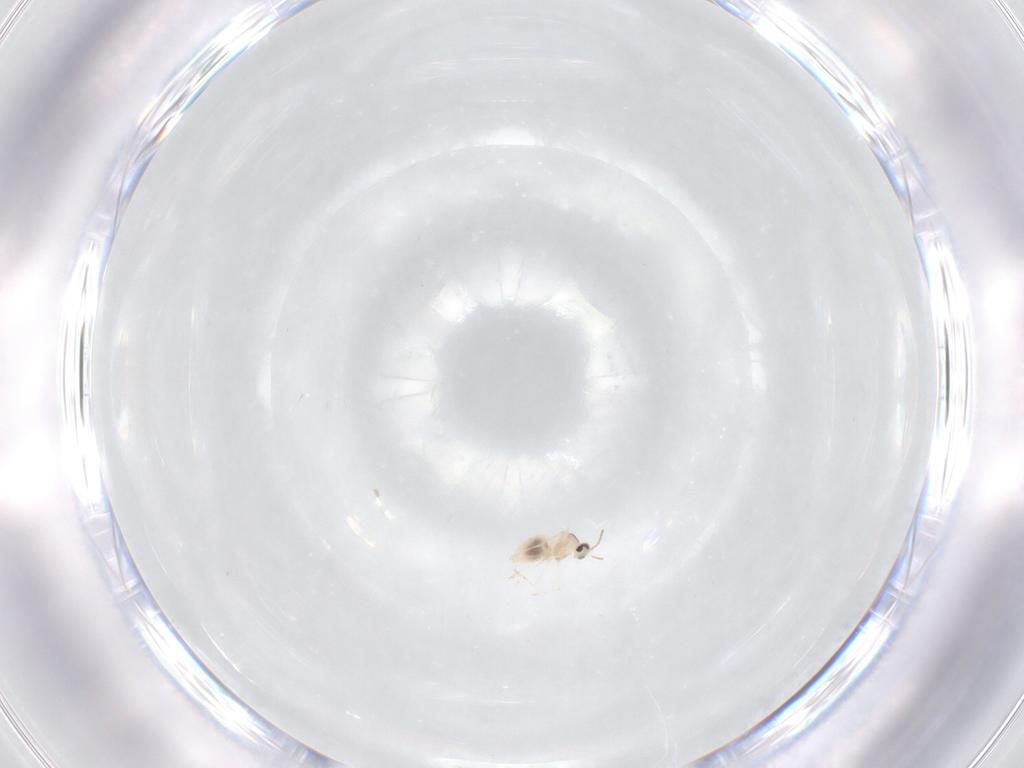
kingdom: Animalia
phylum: Arthropoda
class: Insecta
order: Diptera
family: Cecidomyiidae
